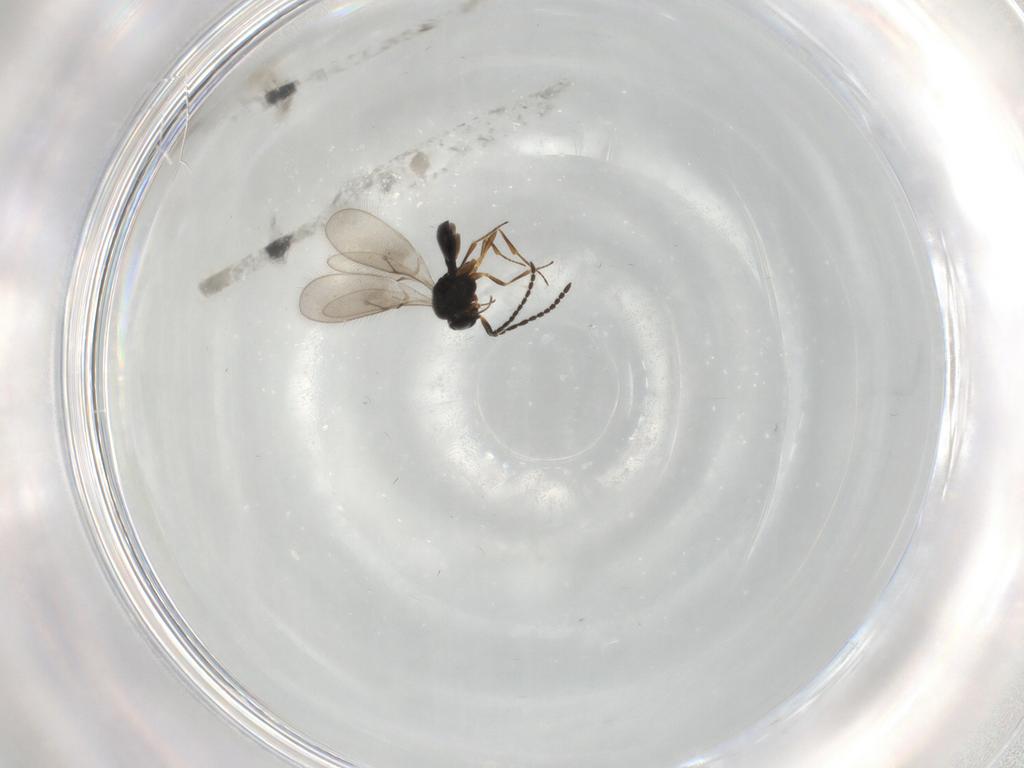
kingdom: Animalia
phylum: Arthropoda
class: Insecta
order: Hymenoptera
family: Scelionidae
